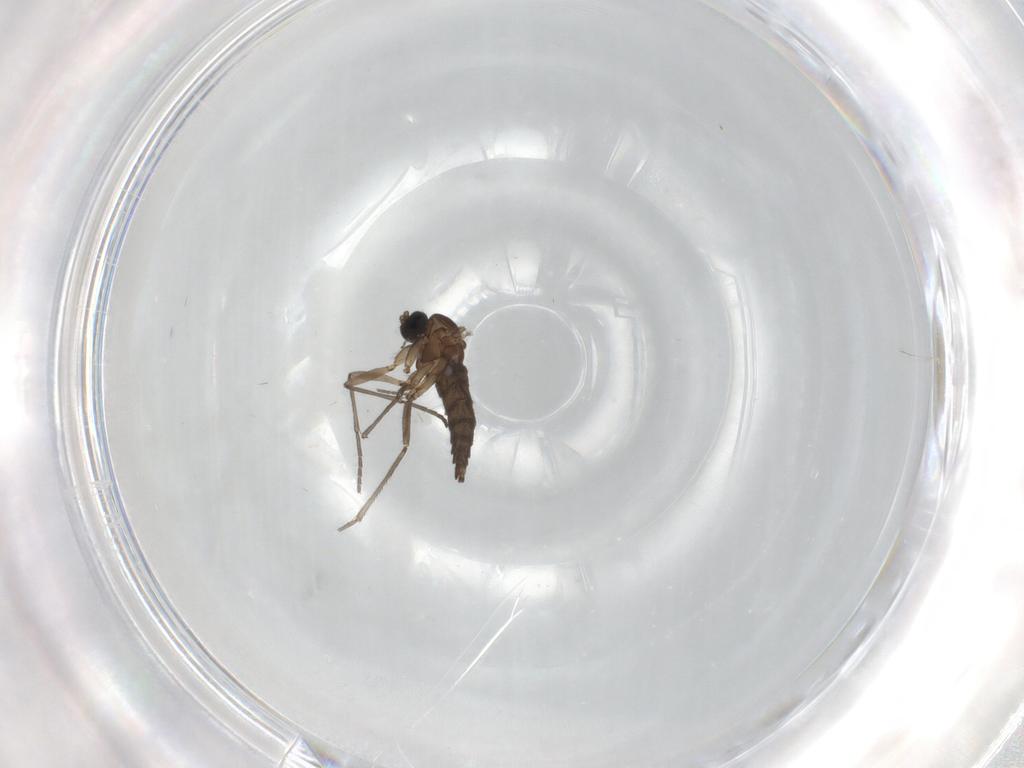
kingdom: Animalia
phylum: Arthropoda
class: Insecta
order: Diptera
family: Sciaridae
